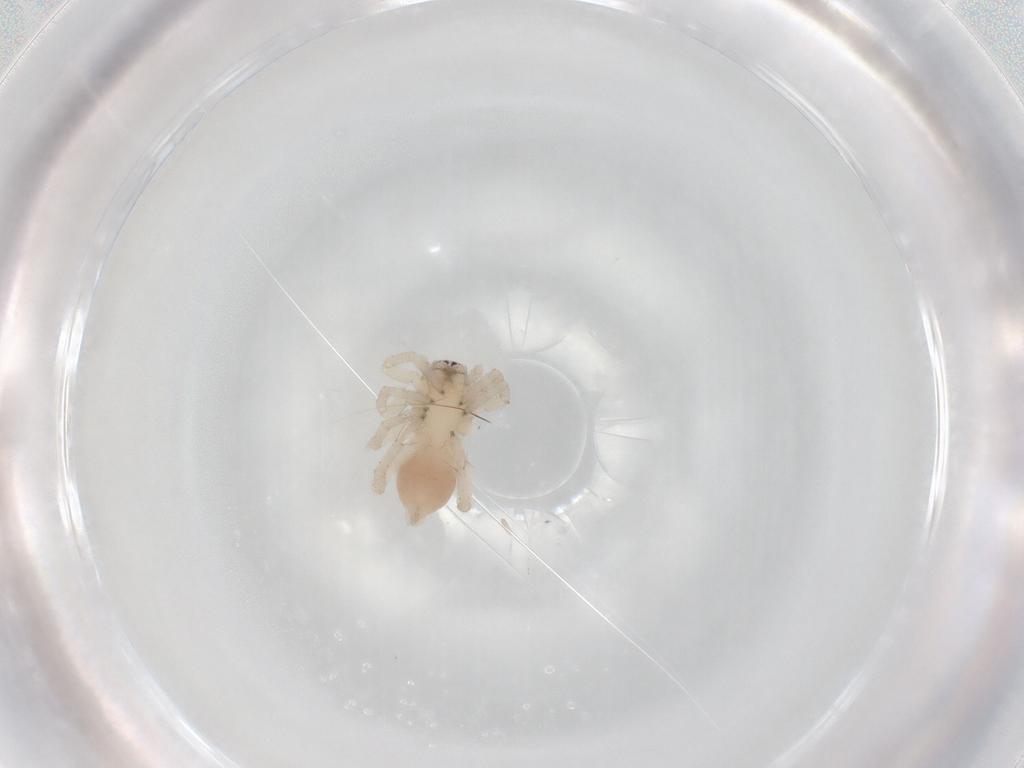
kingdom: Animalia
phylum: Arthropoda
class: Arachnida
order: Araneae
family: Clubionidae
